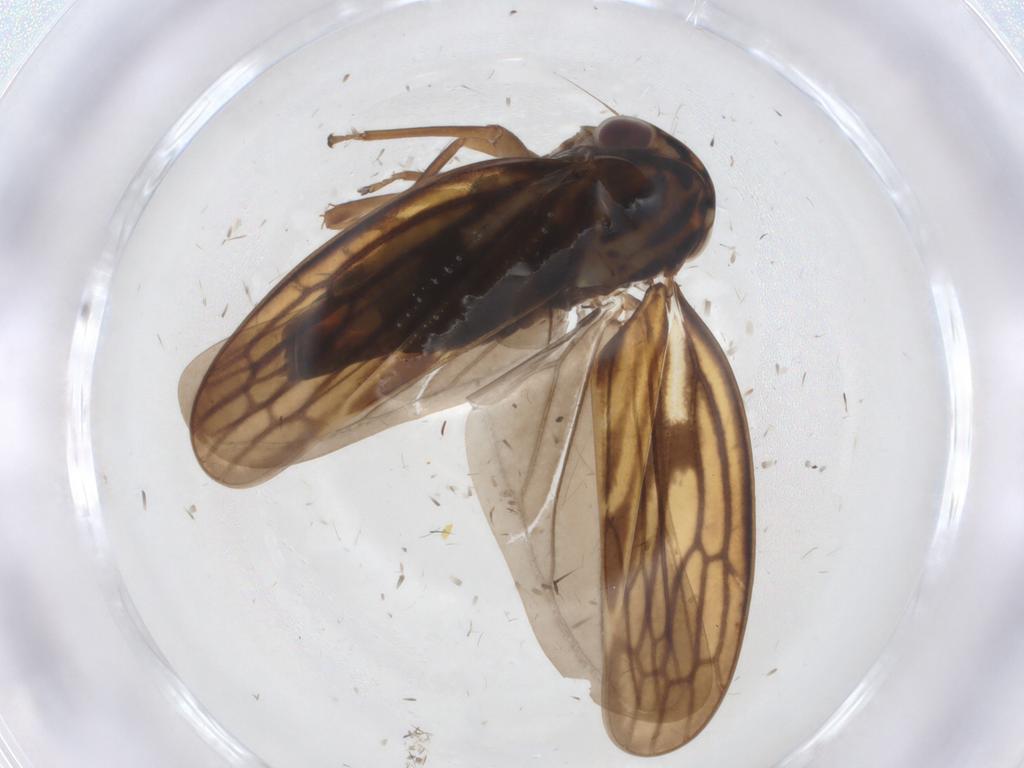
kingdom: Animalia
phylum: Arthropoda
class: Insecta
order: Hemiptera
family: Cicadellidae
